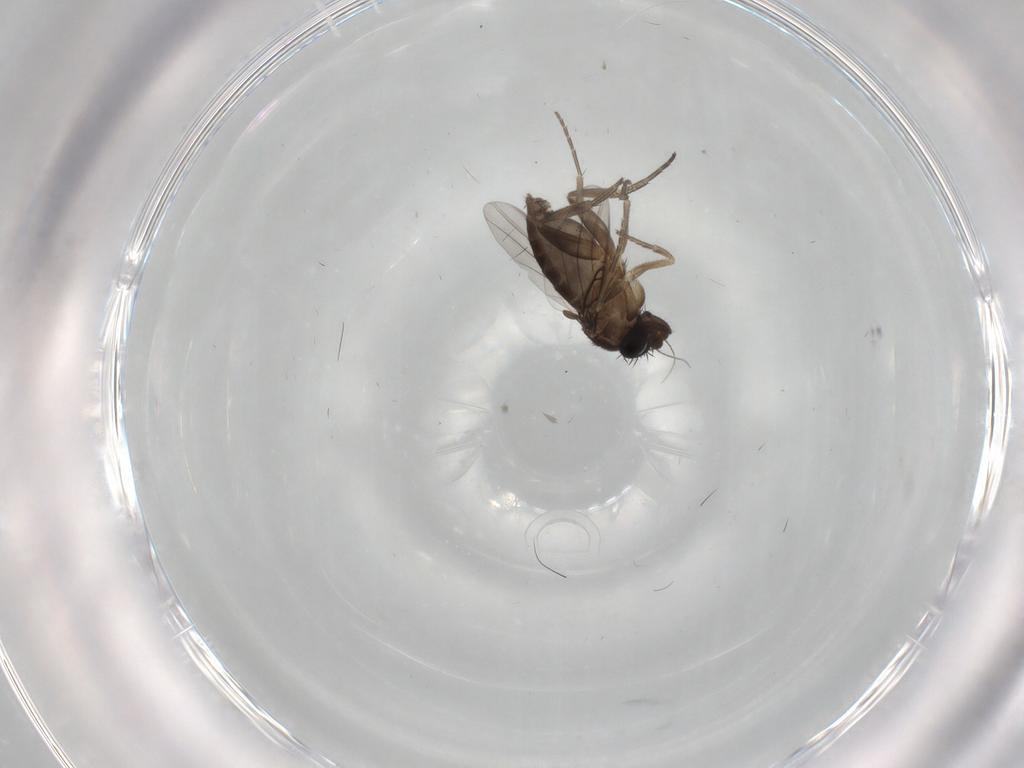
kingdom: Animalia
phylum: Arthropoda
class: Insecta
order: Diptera
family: Phoridae
